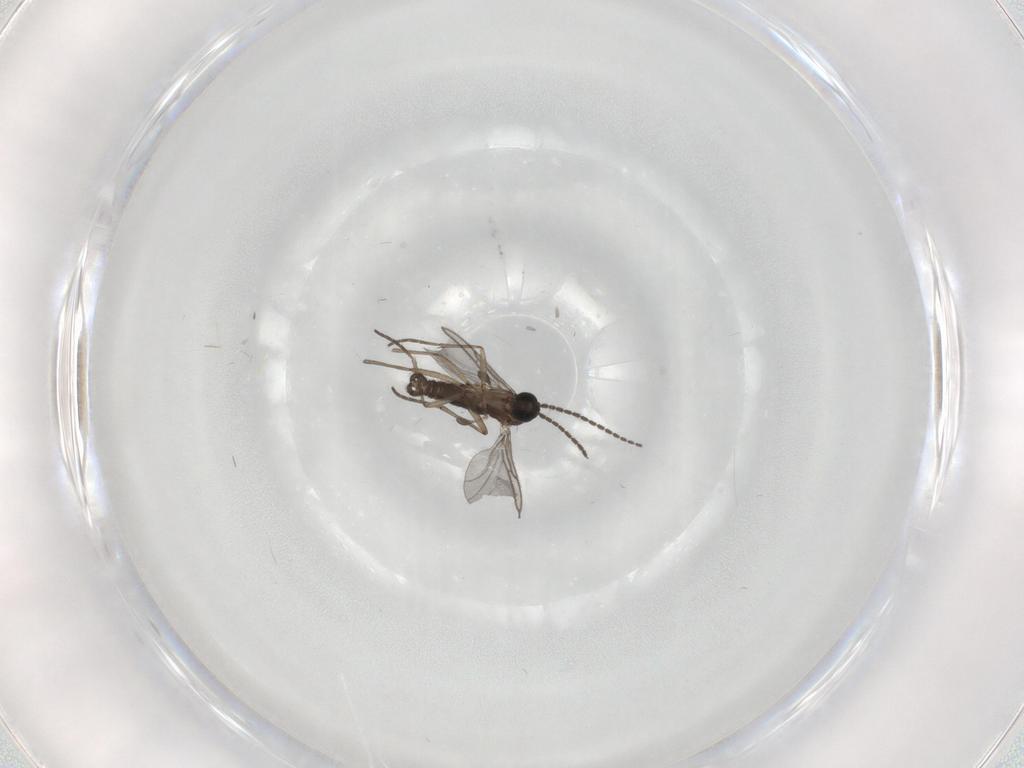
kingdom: Animalia
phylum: Arthropoda
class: Insecta
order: Diptera
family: Sciaridae
